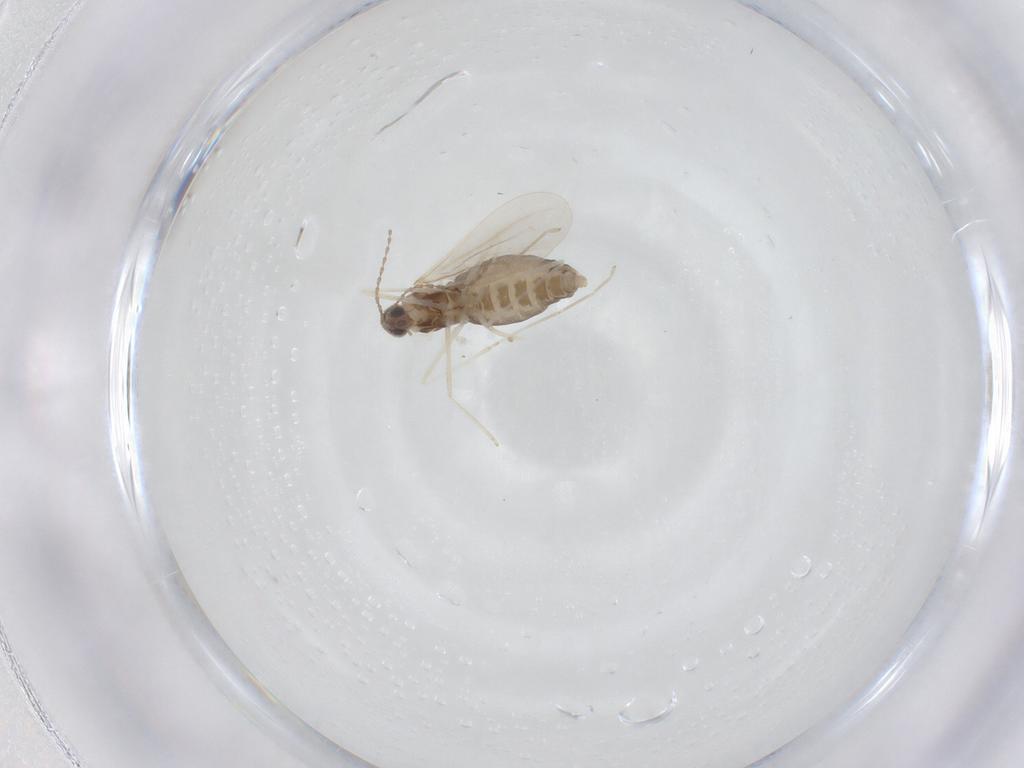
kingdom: Animalia
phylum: Arthropoda
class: Insecta
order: Diptera
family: Cecidomyiidae
